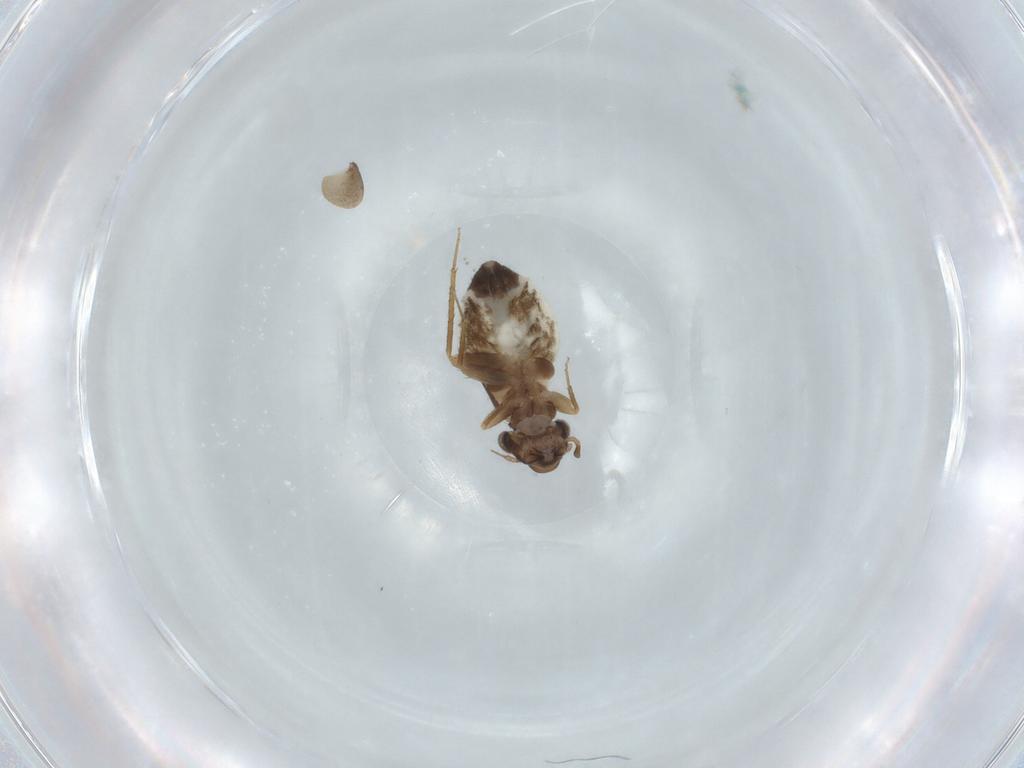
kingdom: Animalia
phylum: Arthropoda
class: Insecta
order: Psocodea
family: Lepidopsocidae
